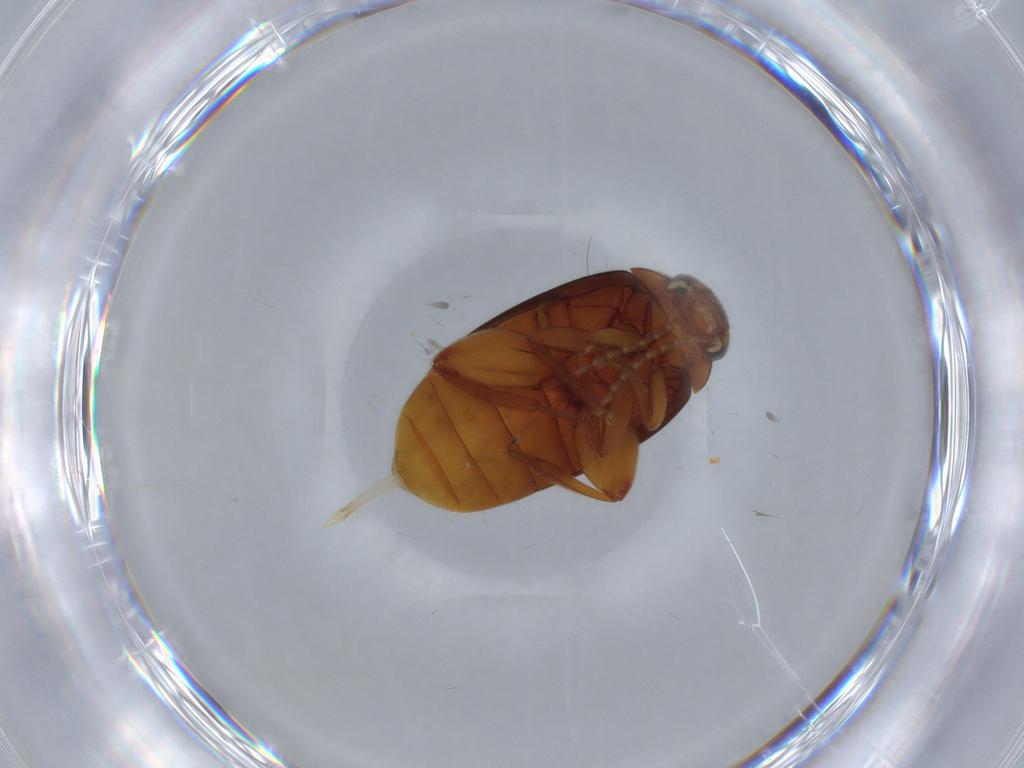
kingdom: Animalia
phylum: Arthropoda
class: Insecta
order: Coleoptera
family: Scirtidae
